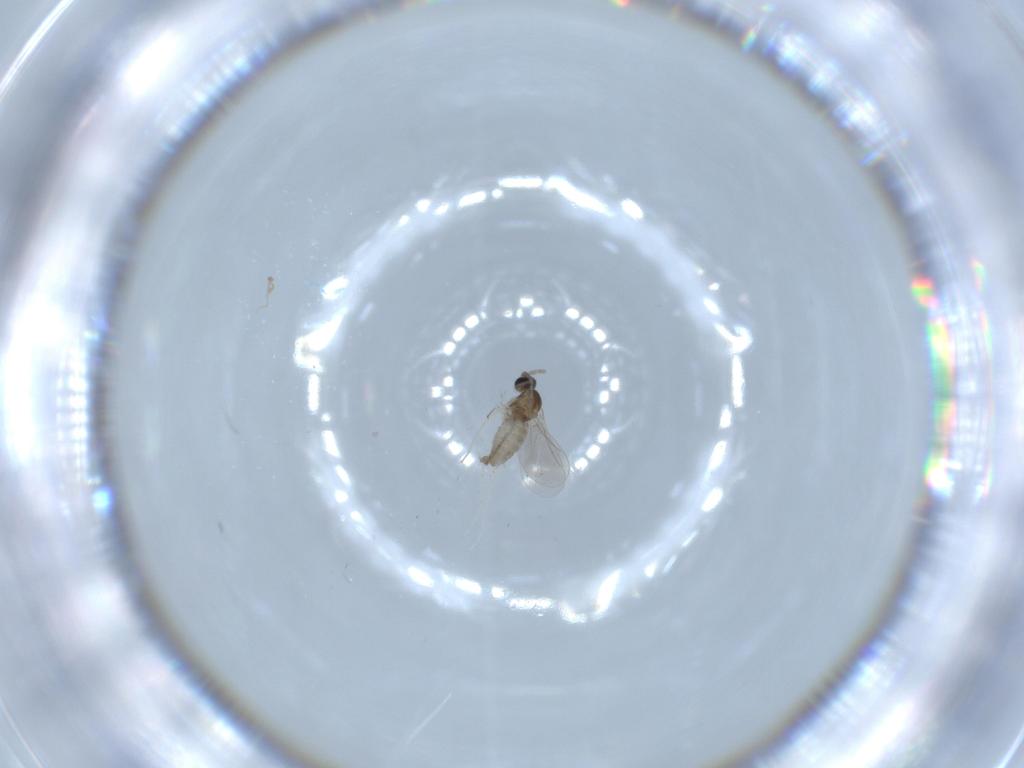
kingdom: Animalia
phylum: Arthropoda
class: Insecta
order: Diptera
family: Cecidomyiidae
